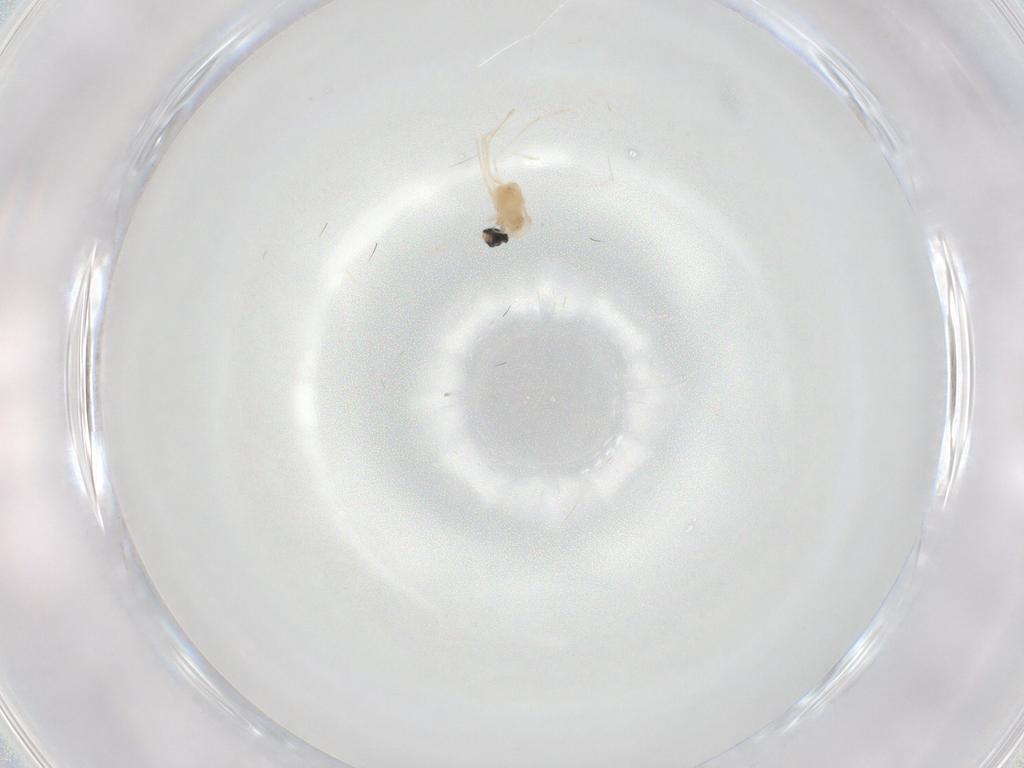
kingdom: Animalia
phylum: Arthropoda
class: Insecta
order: Diptera
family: Cecidomyiidae
